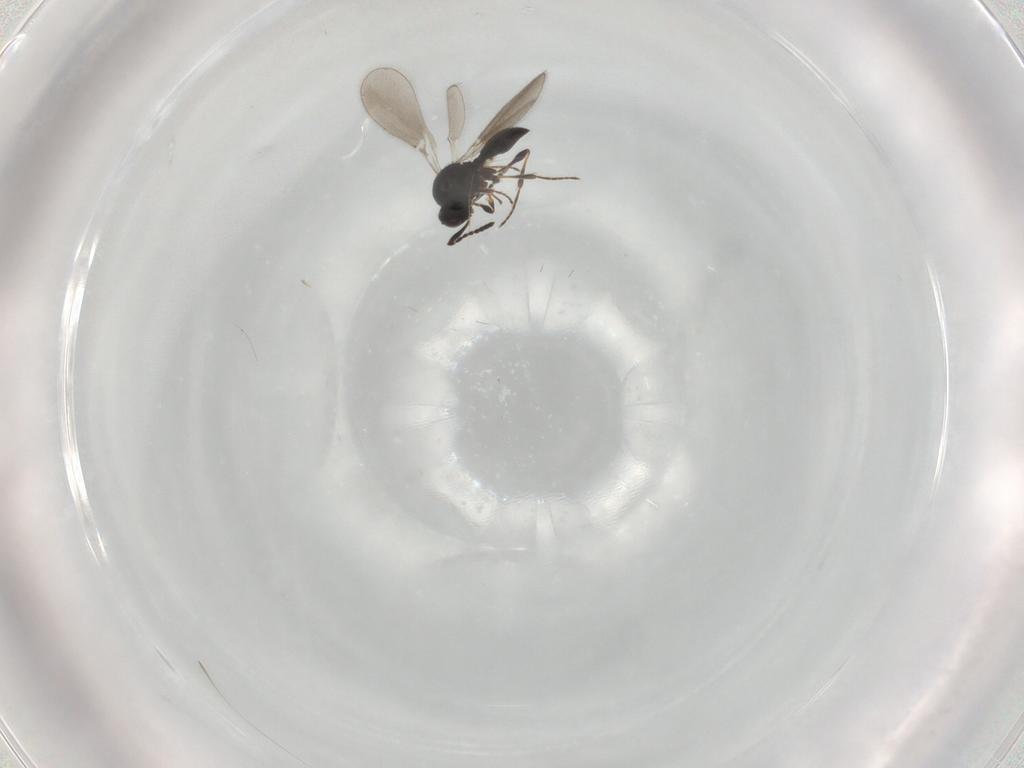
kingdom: Animalia
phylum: Arthropoda
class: Insecta
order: Hymenoptera
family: Platygastridae
